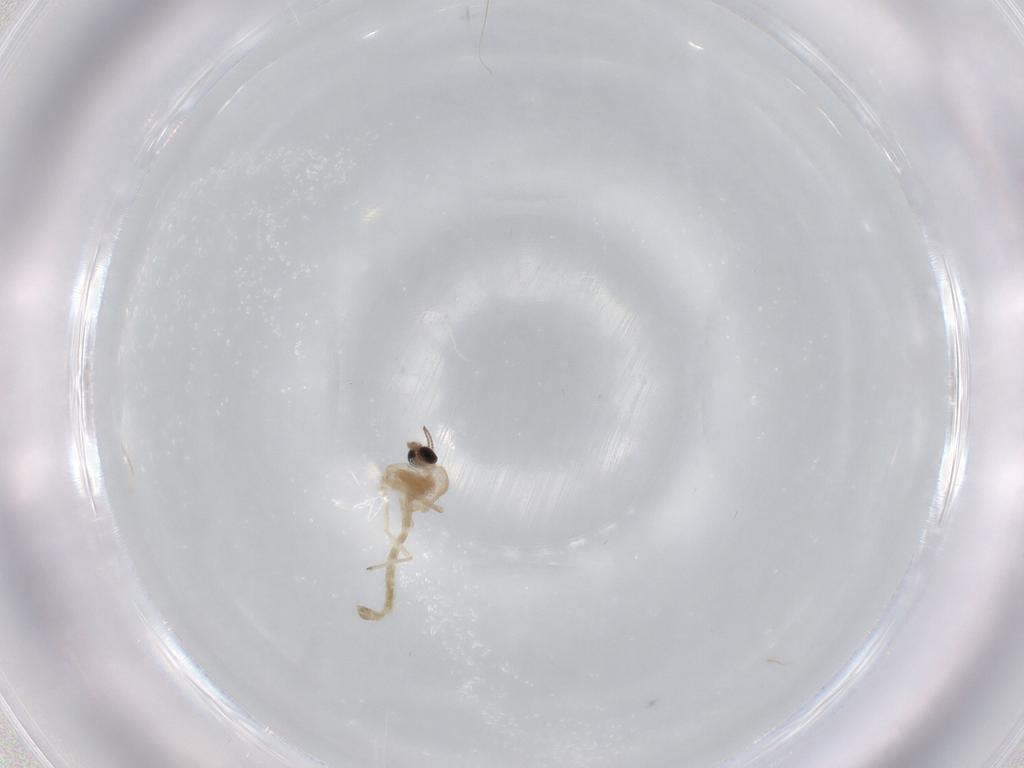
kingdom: Animalia
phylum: Arthropoda
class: Insecta
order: Diptera
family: Chironomidae
